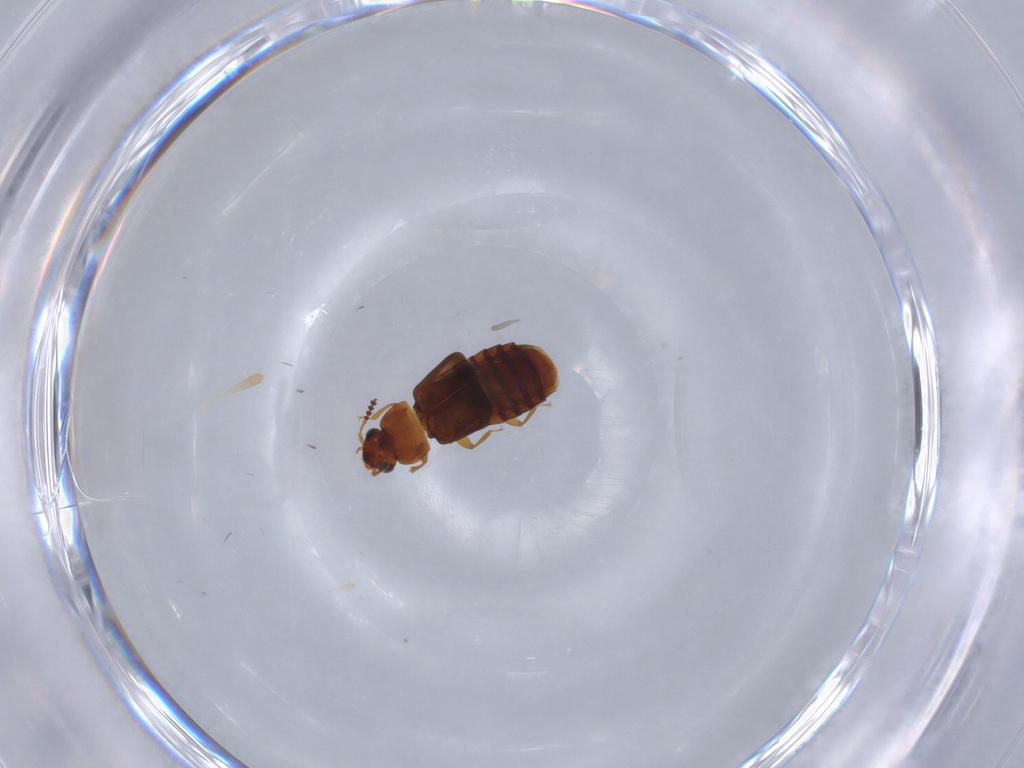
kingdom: Animalia
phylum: Arthropoda
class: Insecta
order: Coleoptera
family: Staphylinidae
